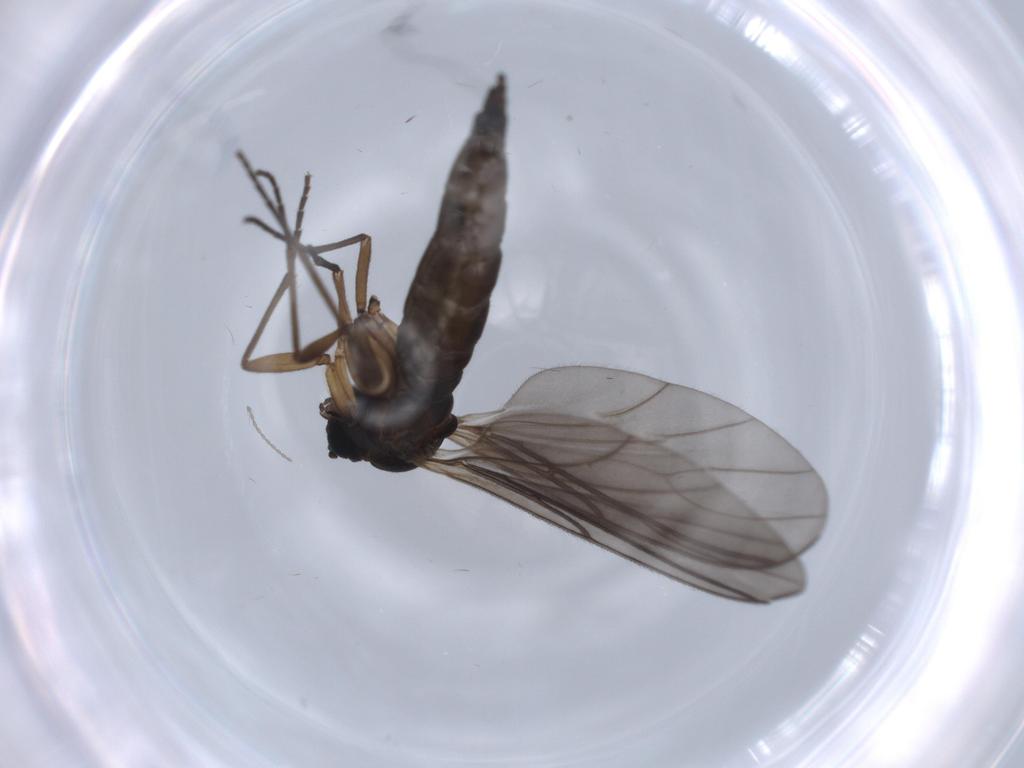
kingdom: Animalia
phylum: Arthropoda
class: Insecta
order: Diptera
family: Sciaridae
